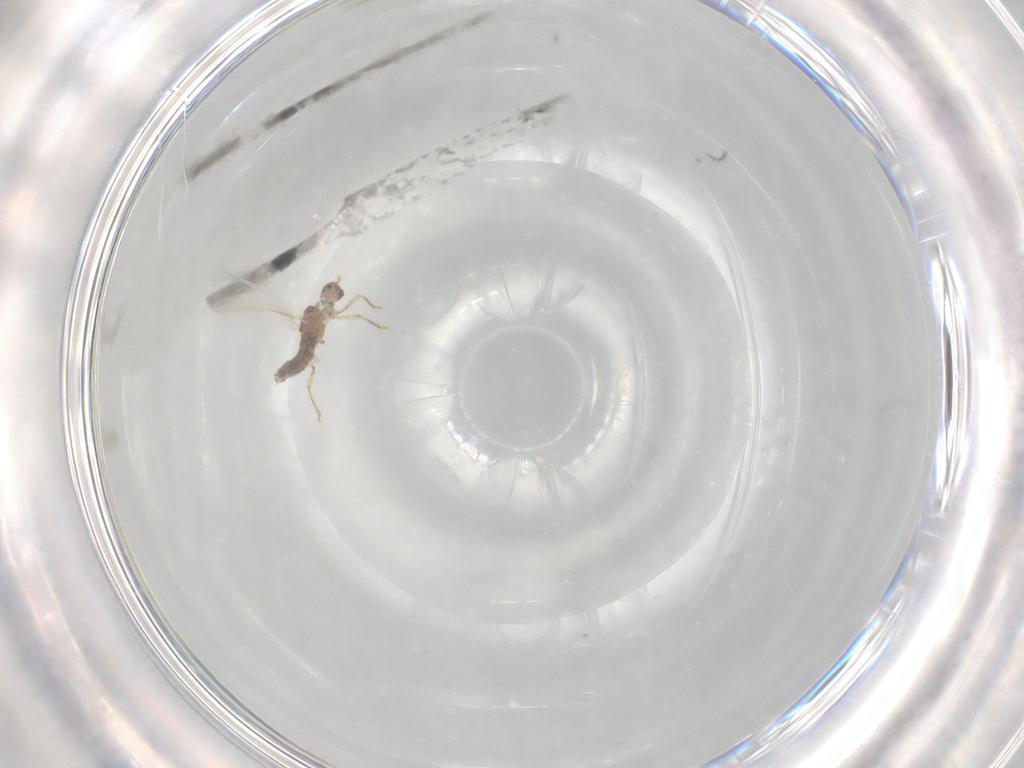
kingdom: Animalia
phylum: Arthropoda
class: Insecta
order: Hemiptera
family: Pseudococcidae
